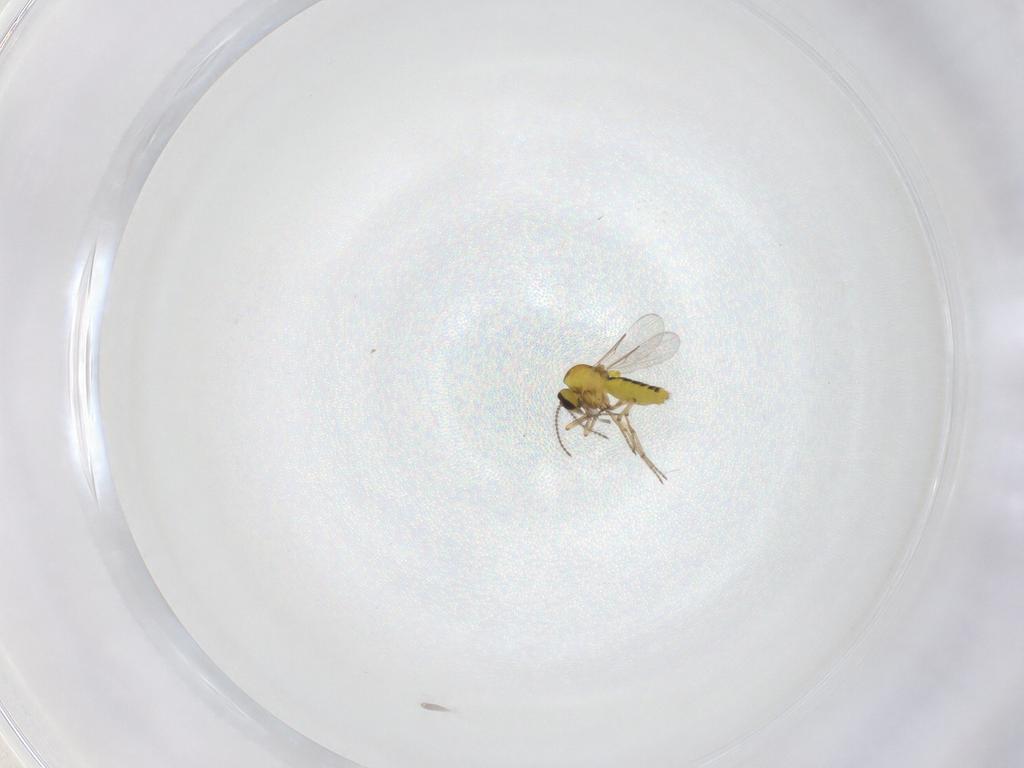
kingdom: Animalia
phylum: Arthropoda
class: Insecta
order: Diptera
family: Ceratopogonidae
